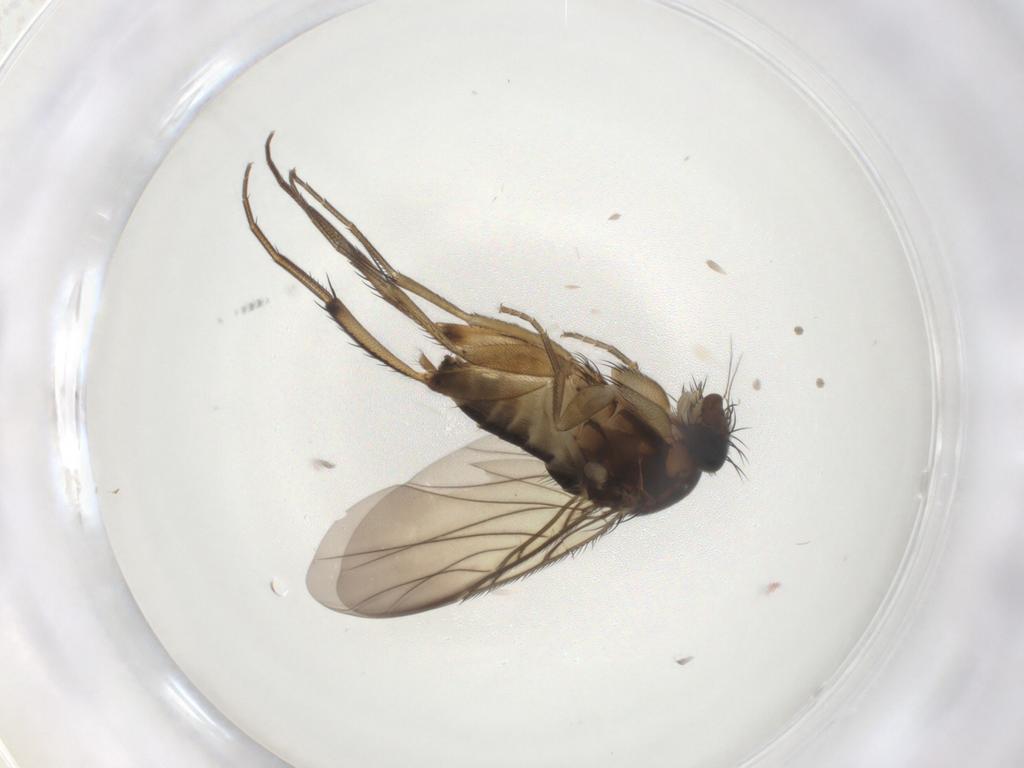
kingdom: Animalia
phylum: Arthropoda
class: Insecta
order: Diptera
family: Phoridae
